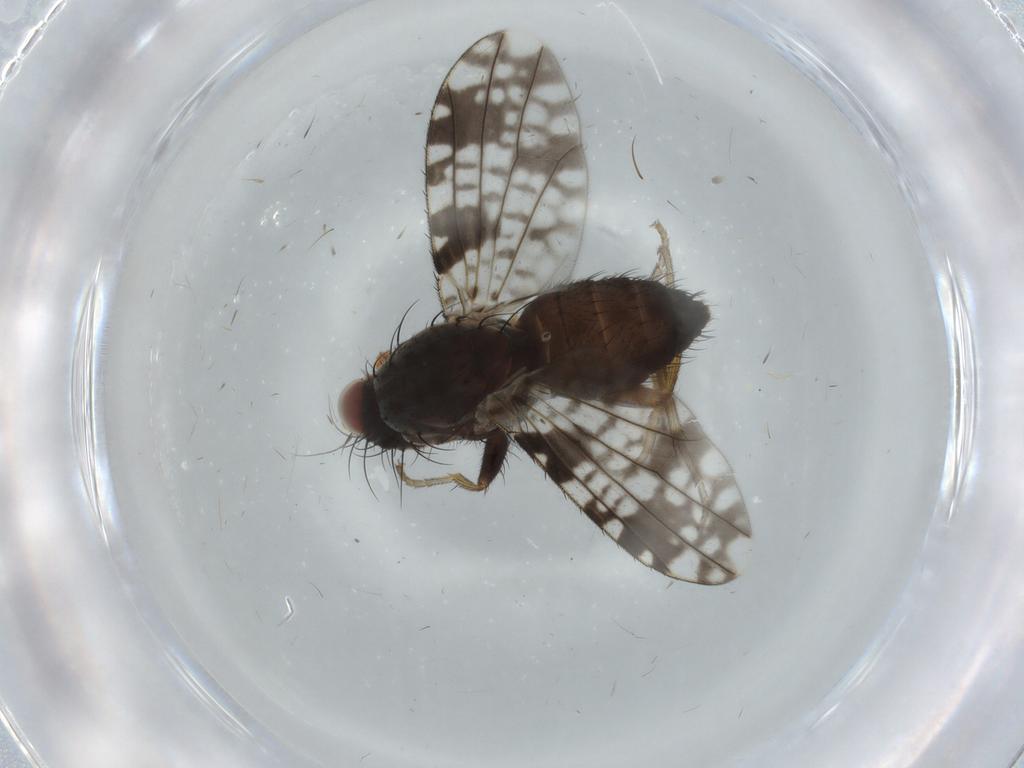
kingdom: Animalia
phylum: Arthropoda
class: Insecta
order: Diptera
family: Tephritidae
